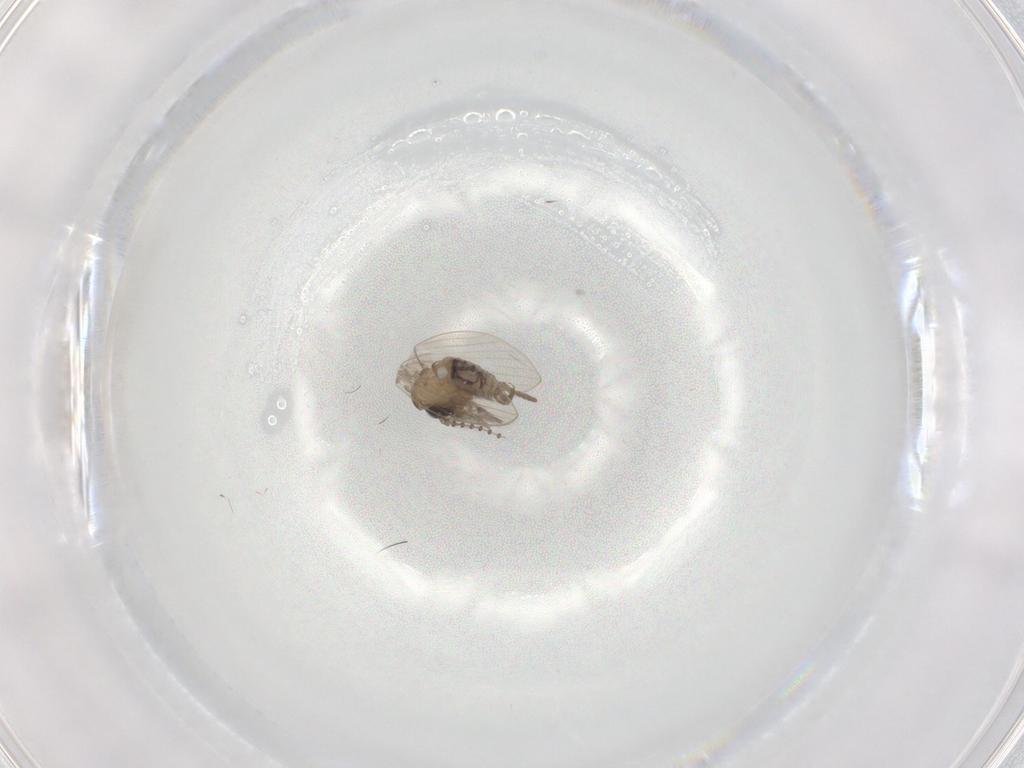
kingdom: Animalia
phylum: Arthropoda
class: Insecta
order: Diptera
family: Psychodidae
